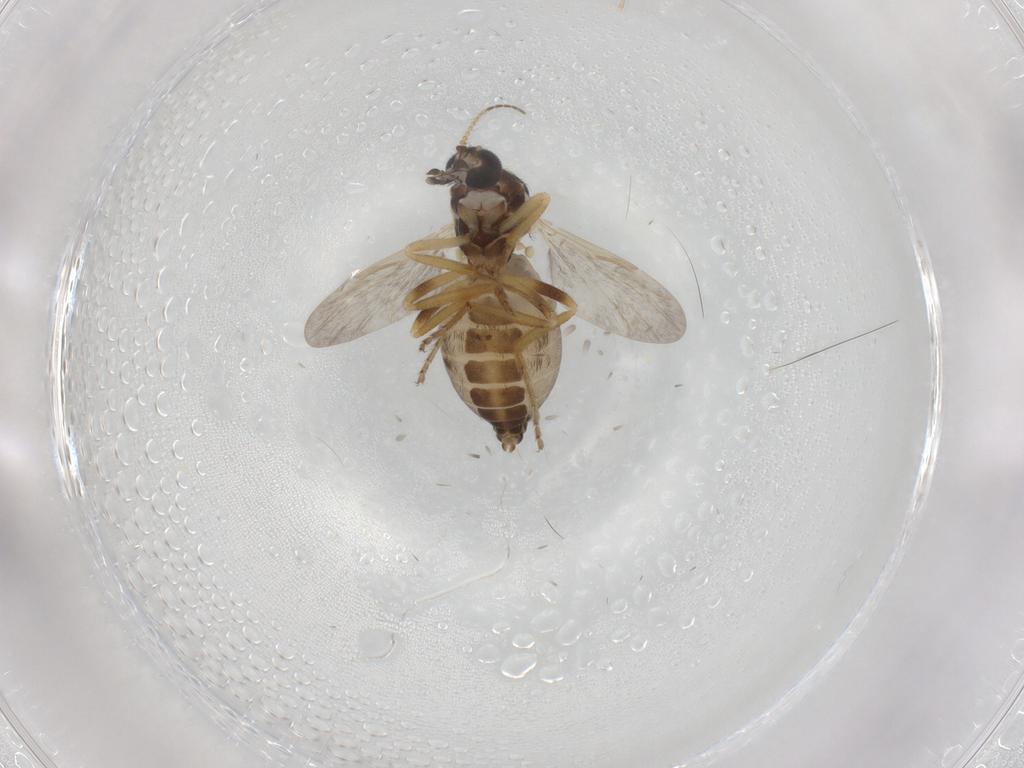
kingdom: Animalia
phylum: Arthropoda
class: Insecta
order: Diptera
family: Ceratopogonidae
